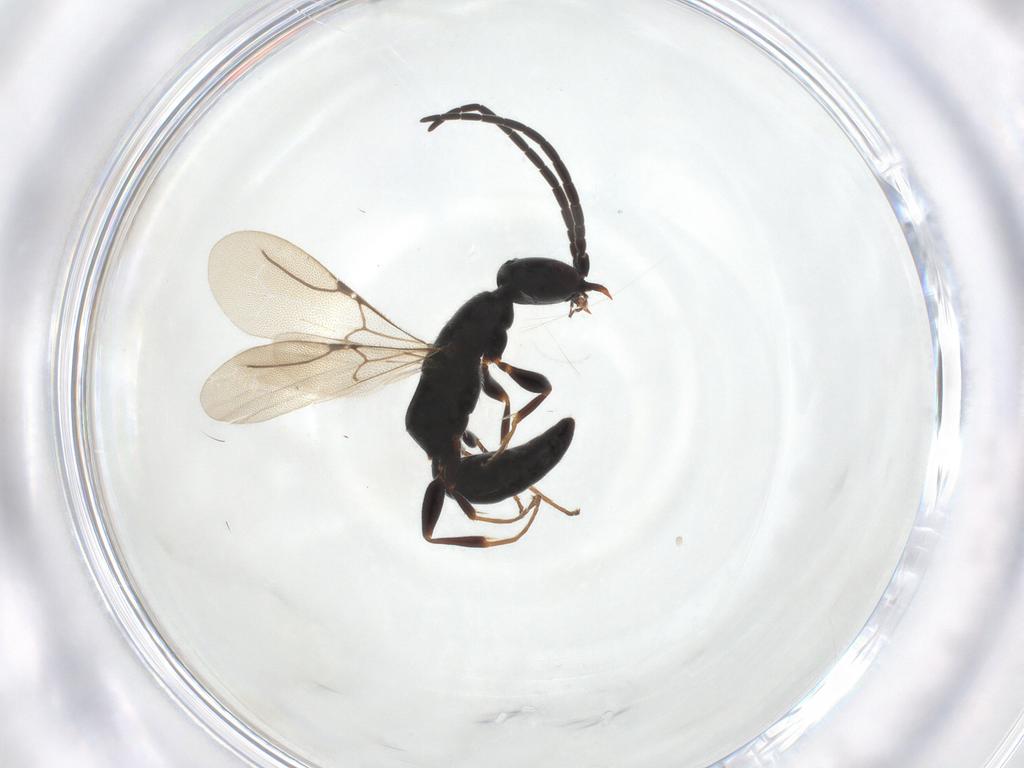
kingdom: Animalia
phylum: Arthropoda
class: Insecta
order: Hymenoptera
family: Bethylidae
